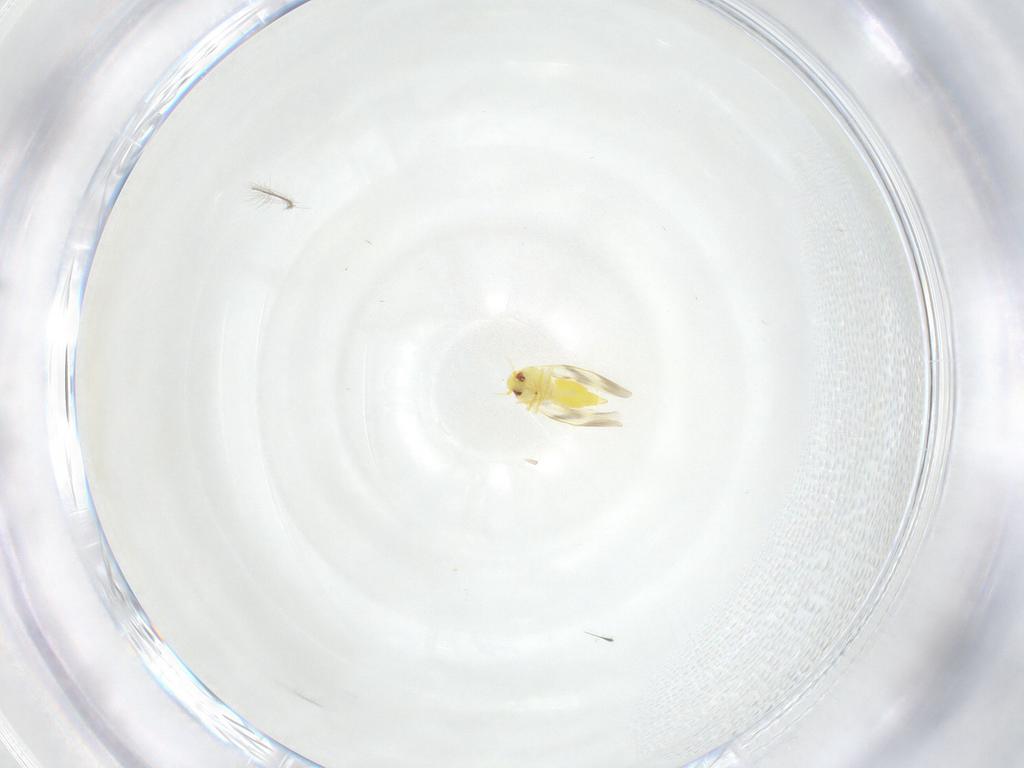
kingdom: Animalia
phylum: Arthropoda
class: Insecta
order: Hemiptera
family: Aleyrodidae
